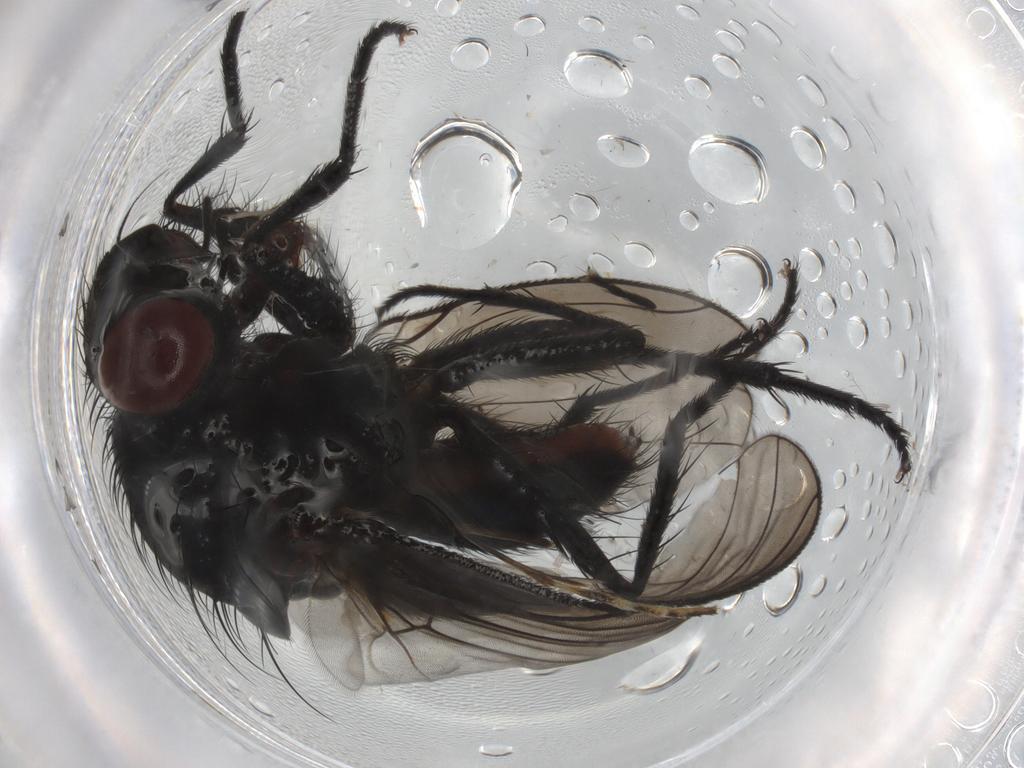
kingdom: Animalia
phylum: Arthropoda
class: Insecta
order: Diptera
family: Anthomyiidae
